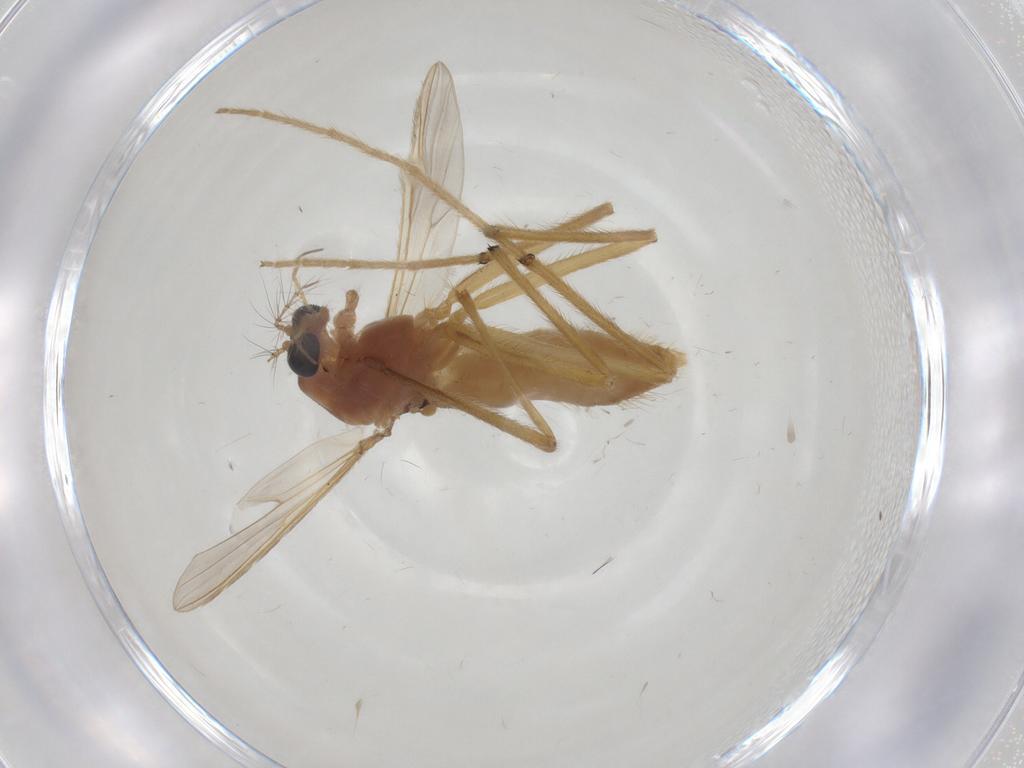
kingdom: Animalia
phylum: Arthropoda
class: Insecta
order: Diptera
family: Chironomidae
